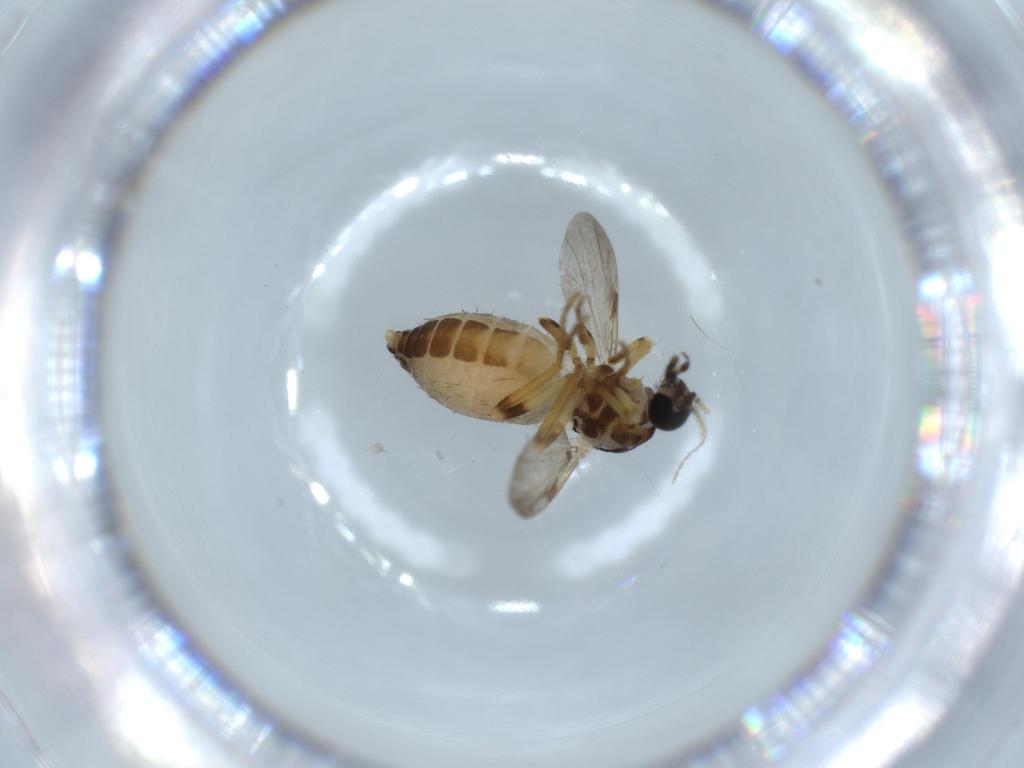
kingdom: Animalia
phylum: Arthropoda
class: Insecta
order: Diptera
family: Ceratopogonidae
